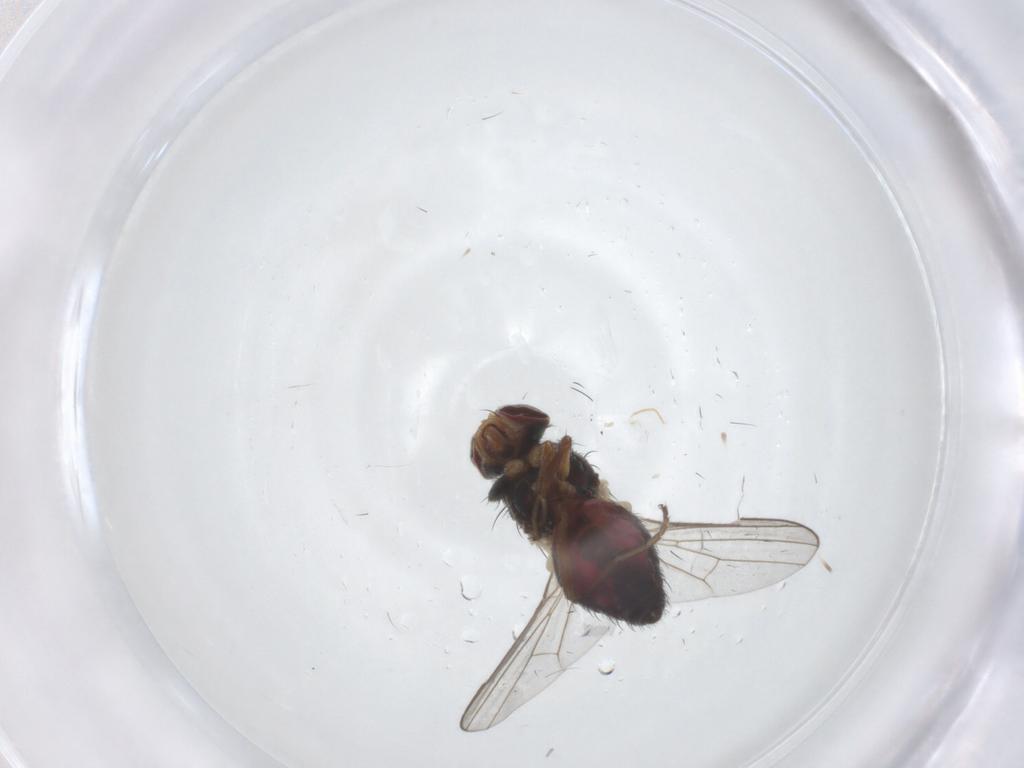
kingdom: Animalia
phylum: Arthropoda
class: Insecta
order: Diptera
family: Heleomyzidae
